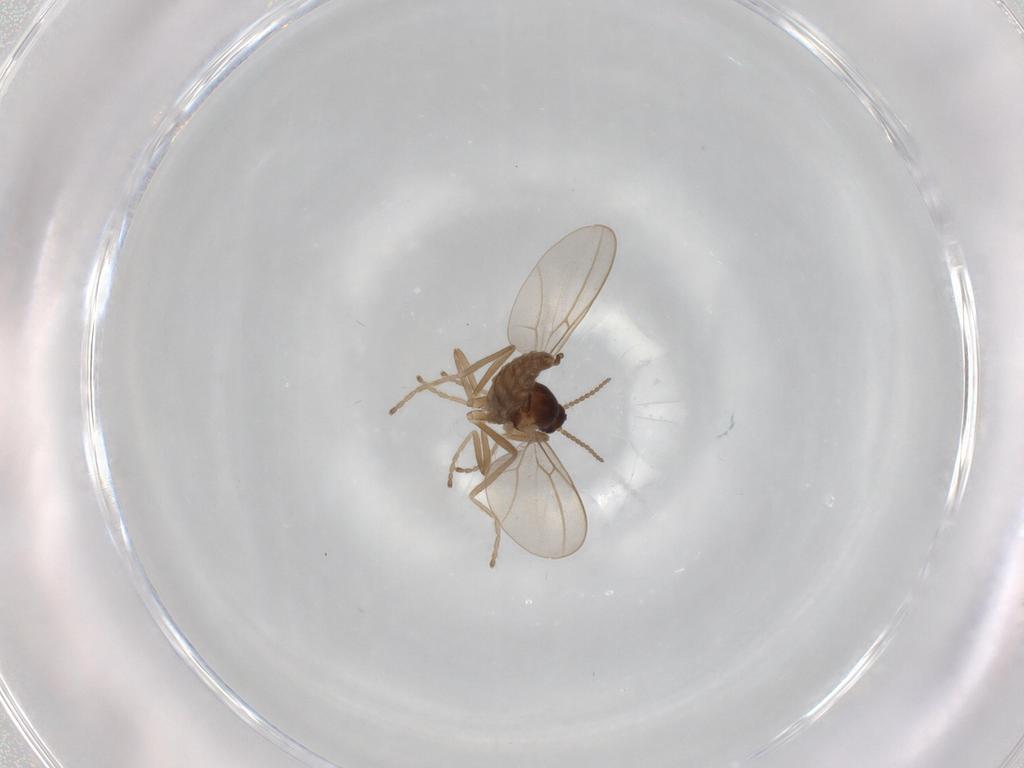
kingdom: Animalia
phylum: Arthropoda
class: Insecta
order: Diptera
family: Cecidomyiidae
